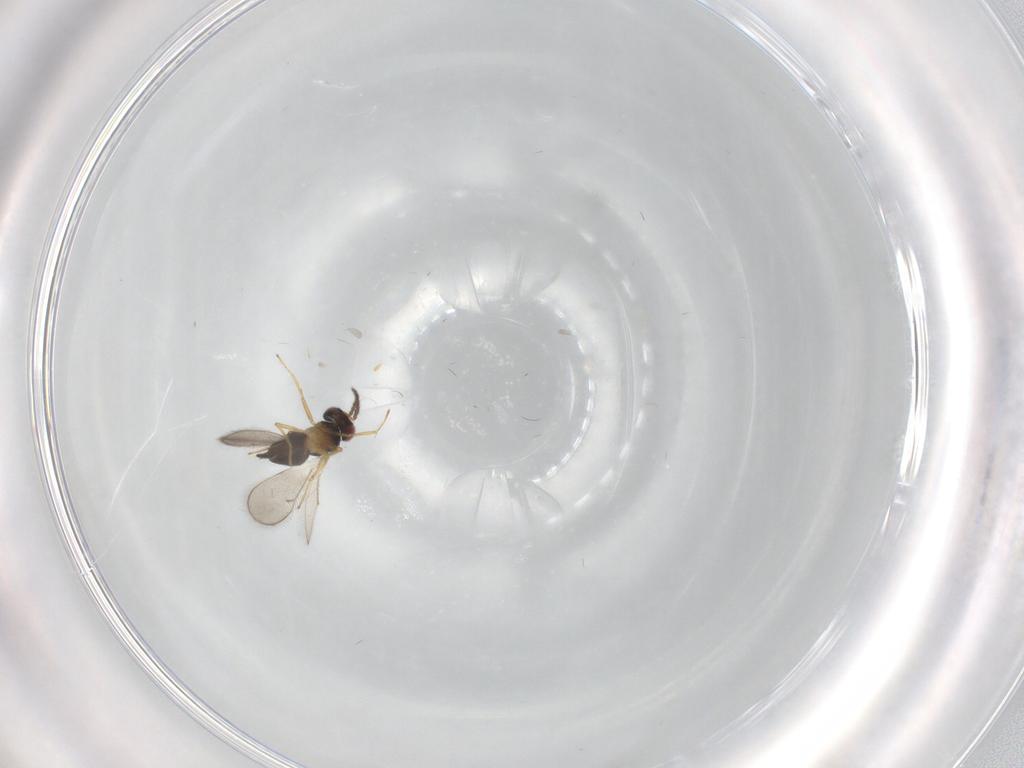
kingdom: Animalia
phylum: Arthropoda
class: Insecta
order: Hymenoptera
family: Eulophidae
